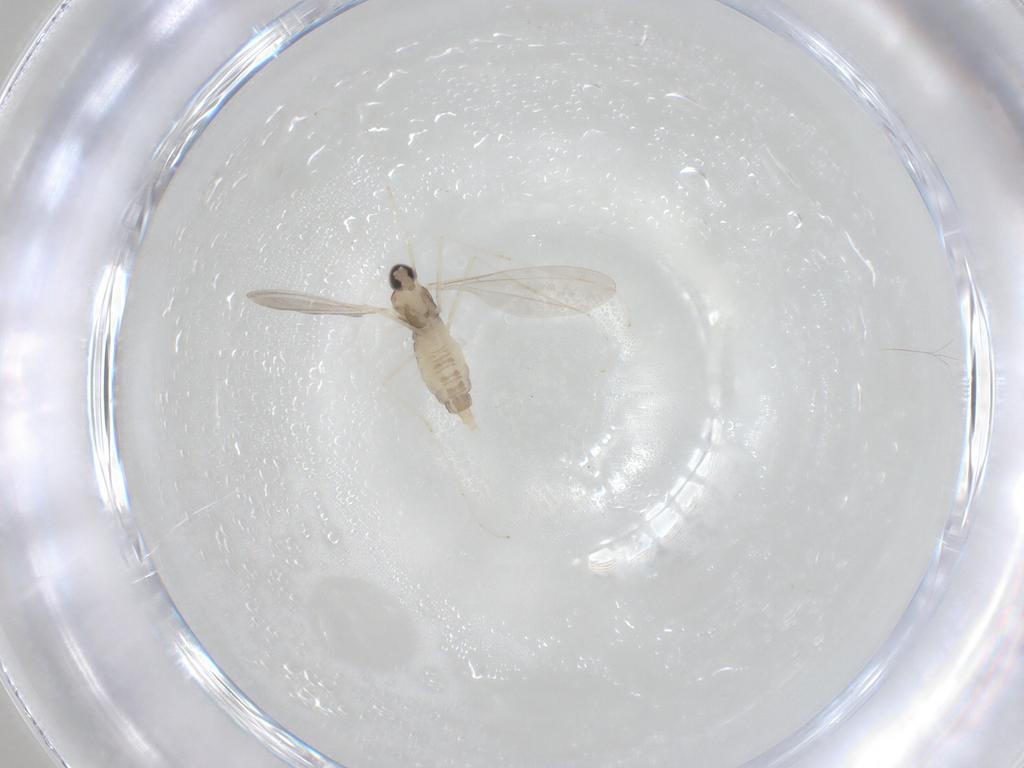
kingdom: Animalia
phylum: Arthropoda
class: Insecta
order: Diptera
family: Cecidomyiidae
